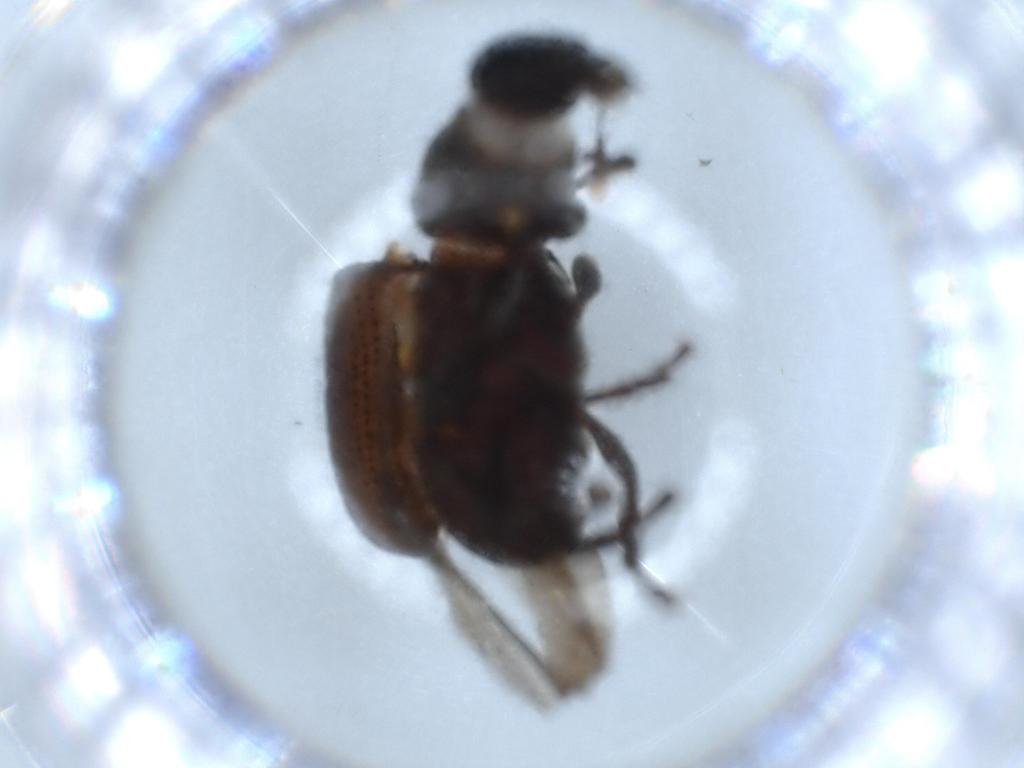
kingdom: Animalia
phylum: Arthropoda
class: Insecta
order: Coleoptera
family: Anthribidae
